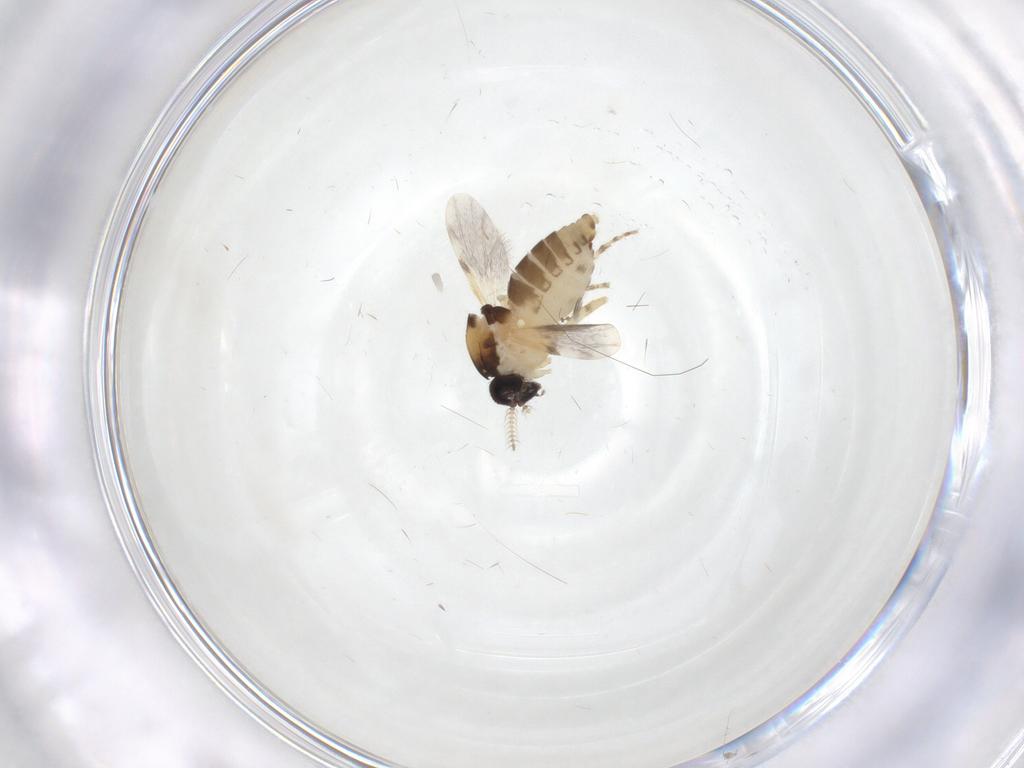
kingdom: Animalia
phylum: Arthropoda
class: Insecta
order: Diptera
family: Ceratopogonidae
